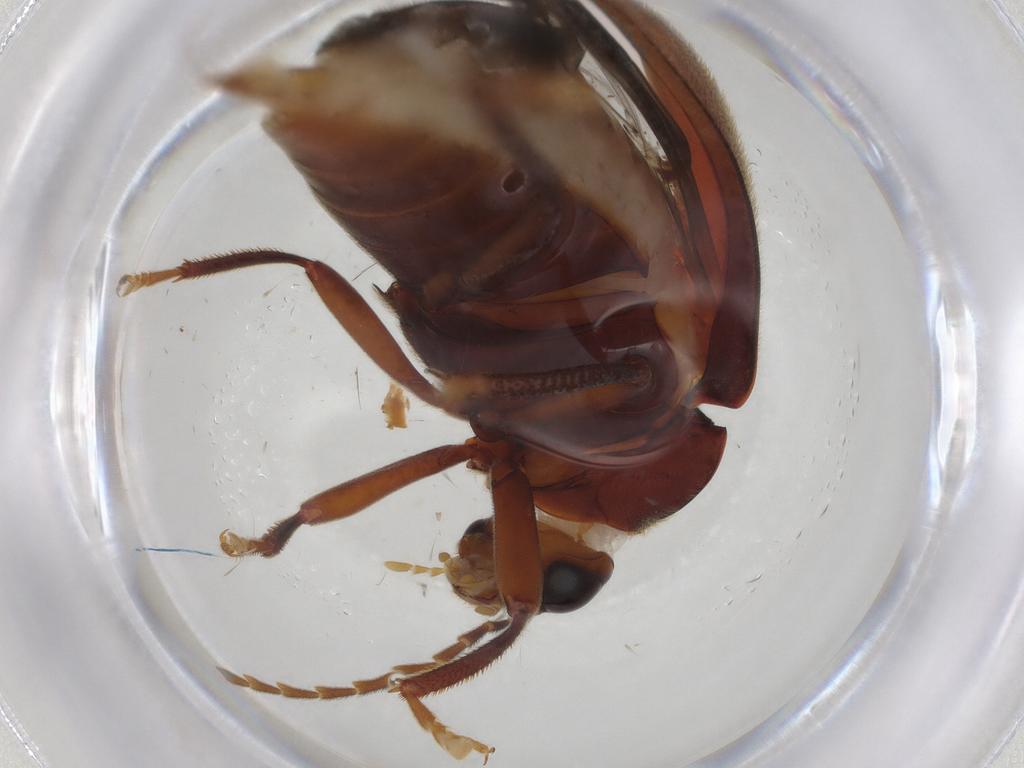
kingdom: Animalia
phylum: Arthropoda
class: Insecta
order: Coleoptera
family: Ptilodactylidae
